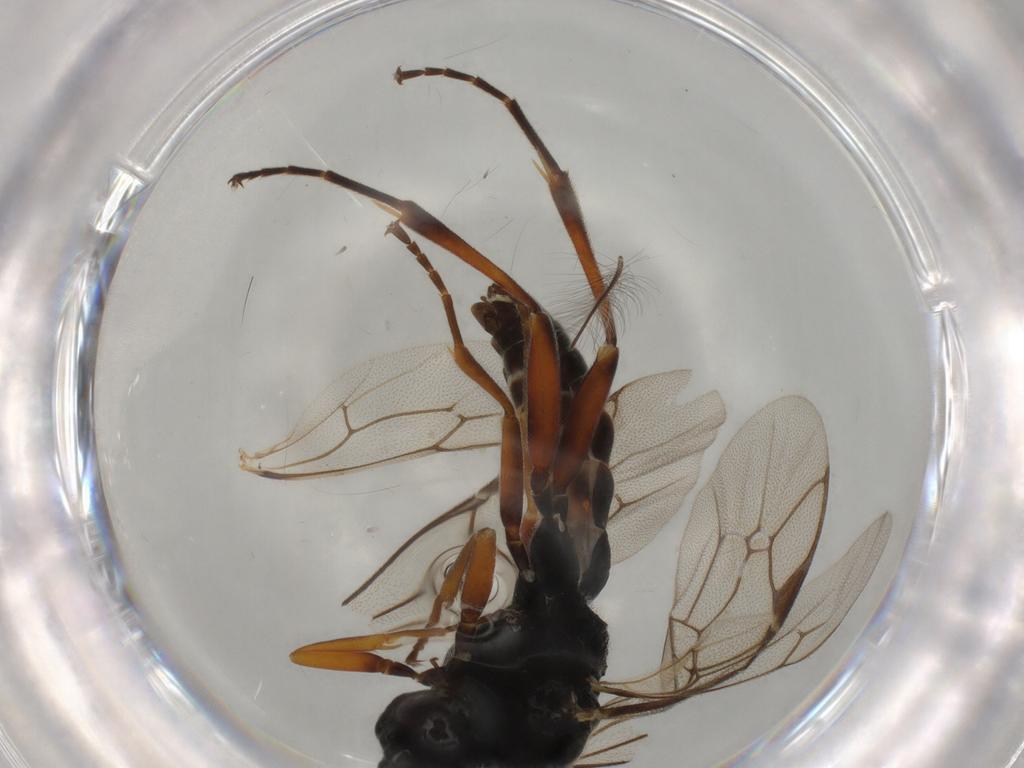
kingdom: Animalia
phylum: Arthropoda
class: Insecta
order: Hymenoptera
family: Ichneumonidae
